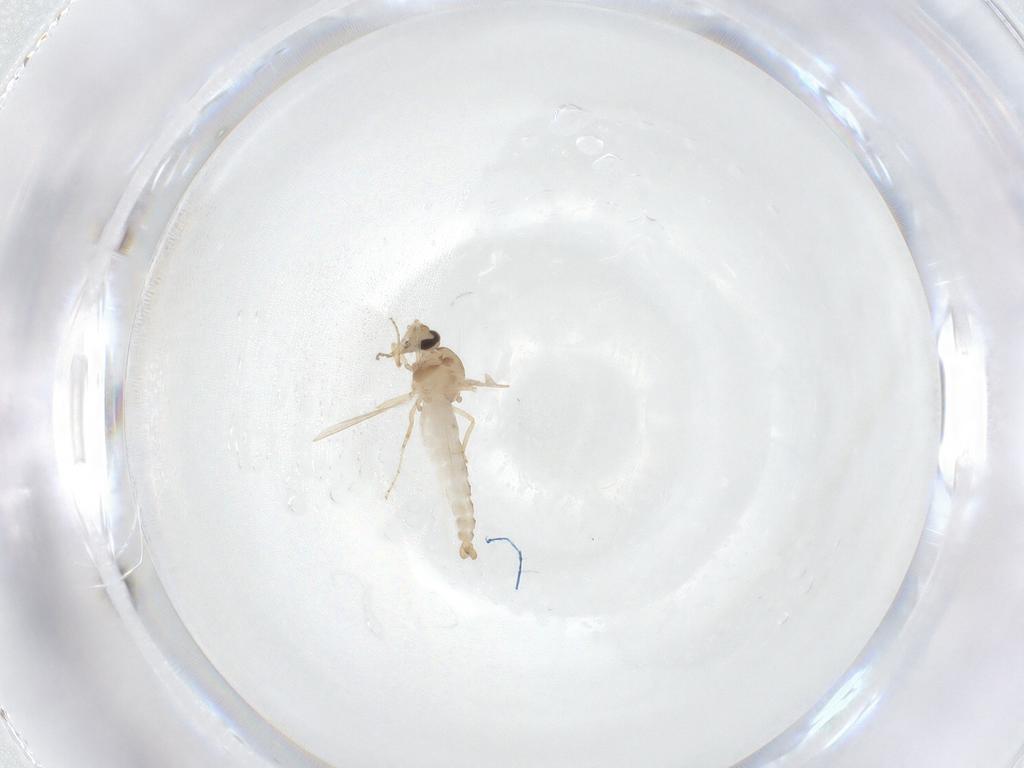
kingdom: Animalia
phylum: Arthropoda
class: Insecta
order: Diptera
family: Ceratopogonidae
